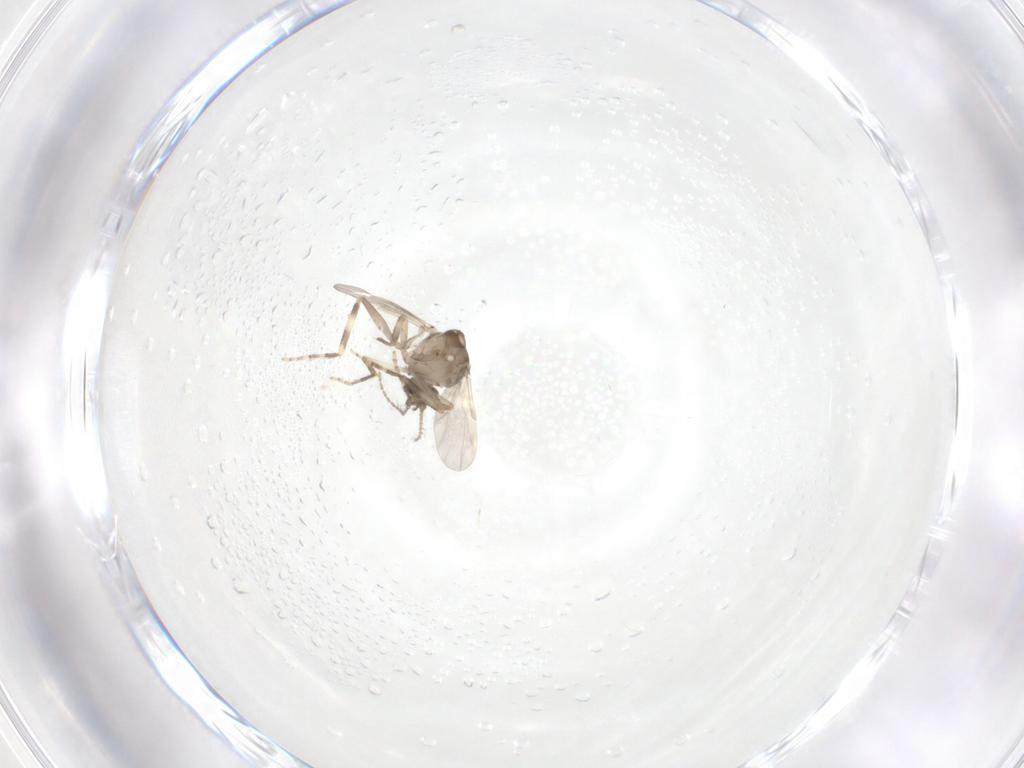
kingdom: Animalia
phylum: Arthropoda
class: Insecta
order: Diptera
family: Ceratopogonidae
